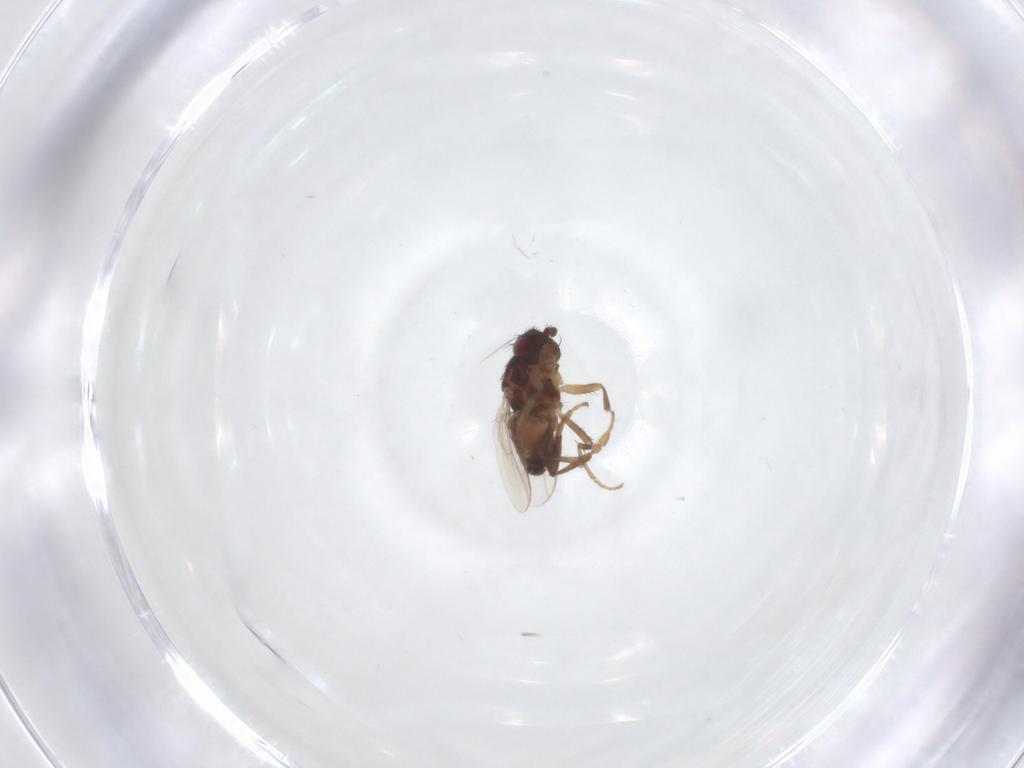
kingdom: Animalia
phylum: Arthropoda
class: Insecta
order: Diptera
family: Sphaeroceridae
